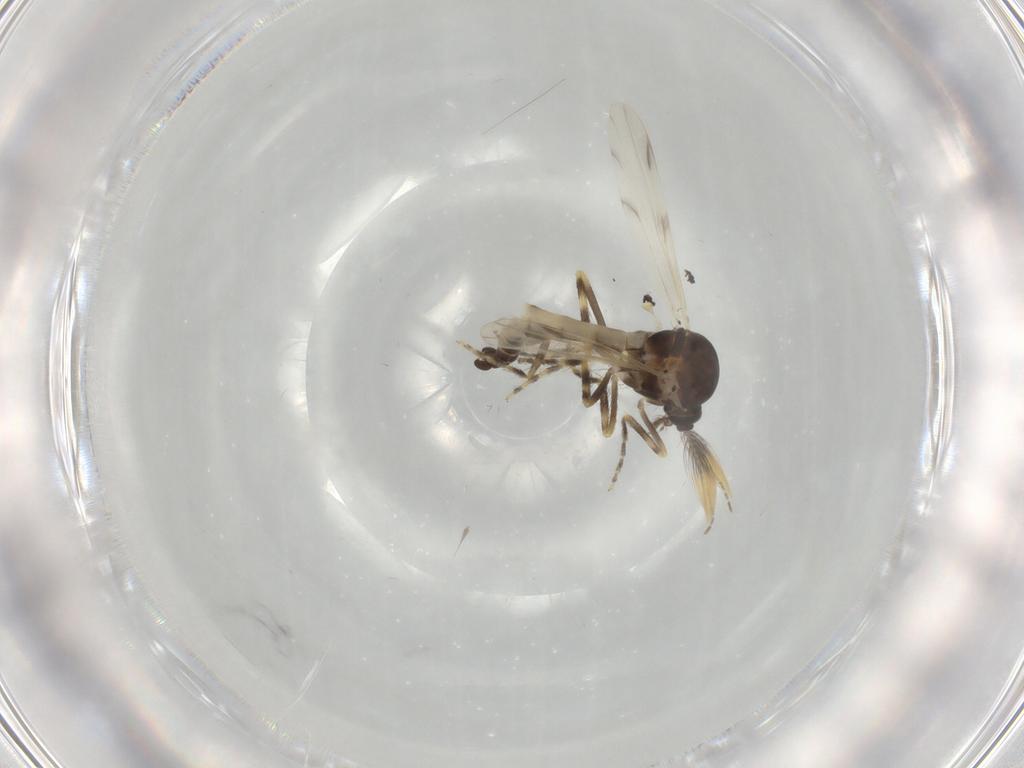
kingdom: Animalia
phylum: Arthropoda
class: Insecta
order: Diptera
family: Ceratopogonidae
